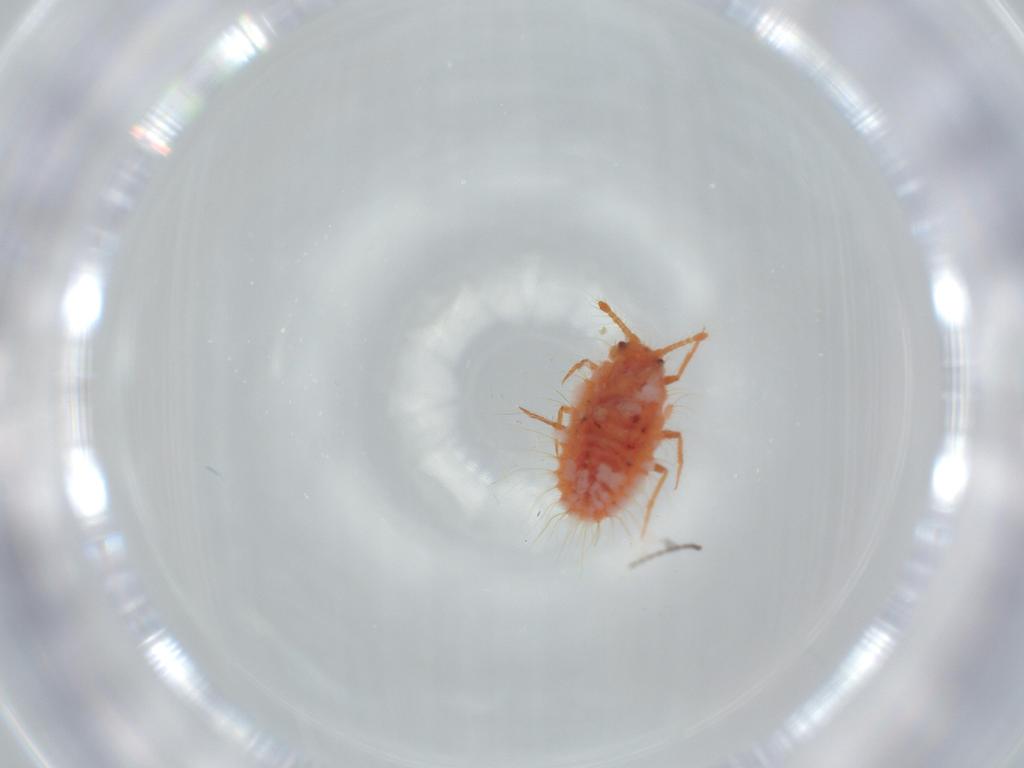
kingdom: Animalia
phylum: Arthropoda
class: Insecta
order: Hemiptera
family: Coccoidea_incertae_sedis
